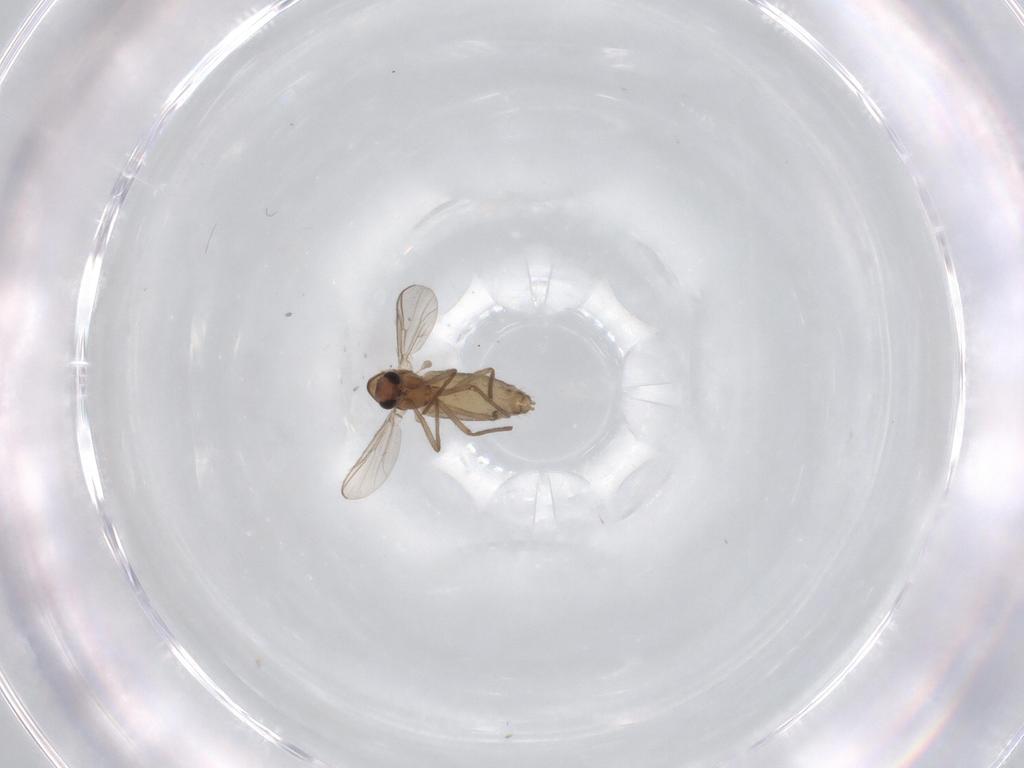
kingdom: Animalia
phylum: Arthropoda
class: Insecta
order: Diptera
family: Chironomidae
